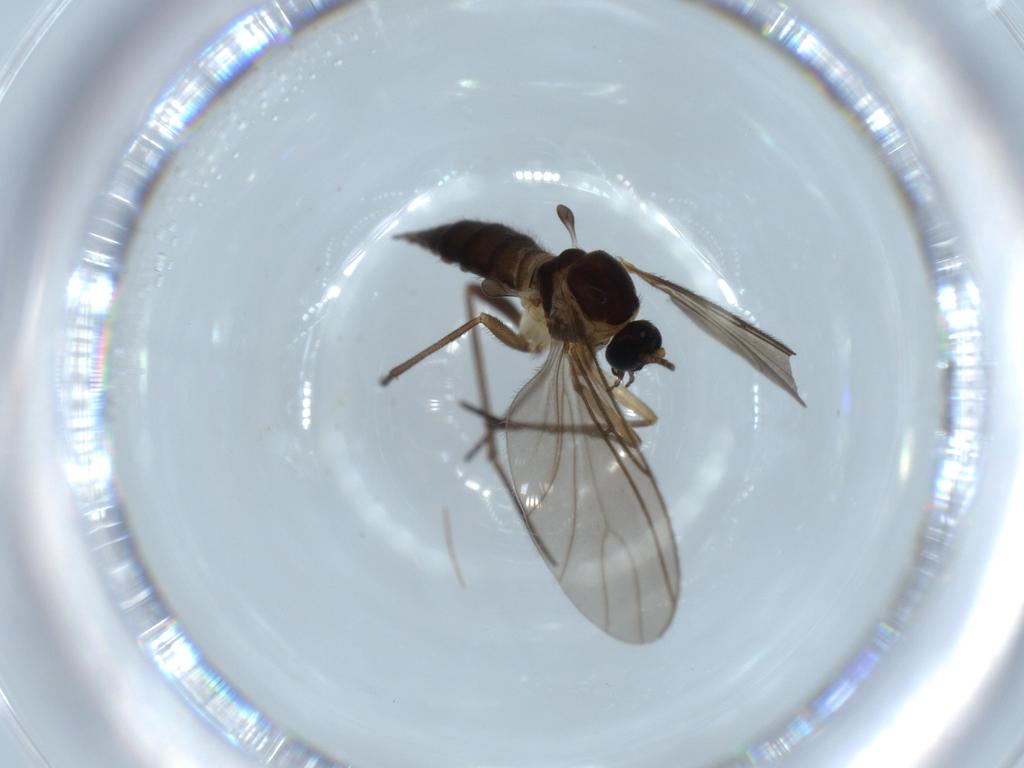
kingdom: Animalia
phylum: Arthropoda
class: Insecta
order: Diptera
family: Sciaridae
